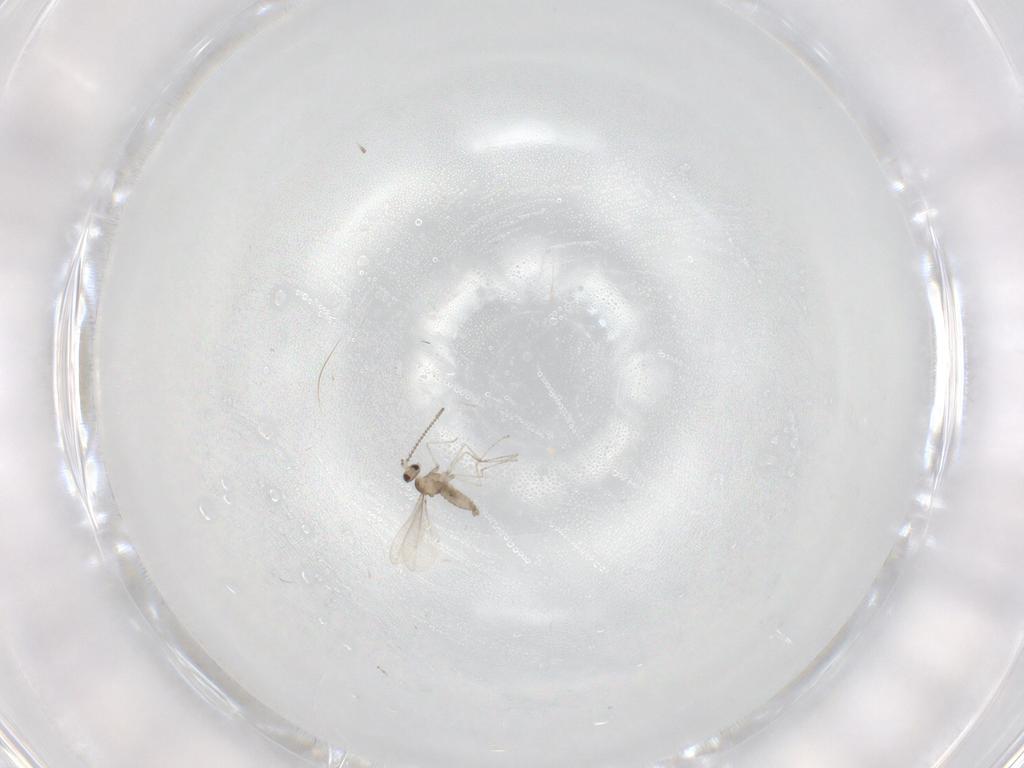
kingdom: Animalia
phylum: Arthropoda
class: Insecta
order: Diptera
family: Cecidomyiidae
